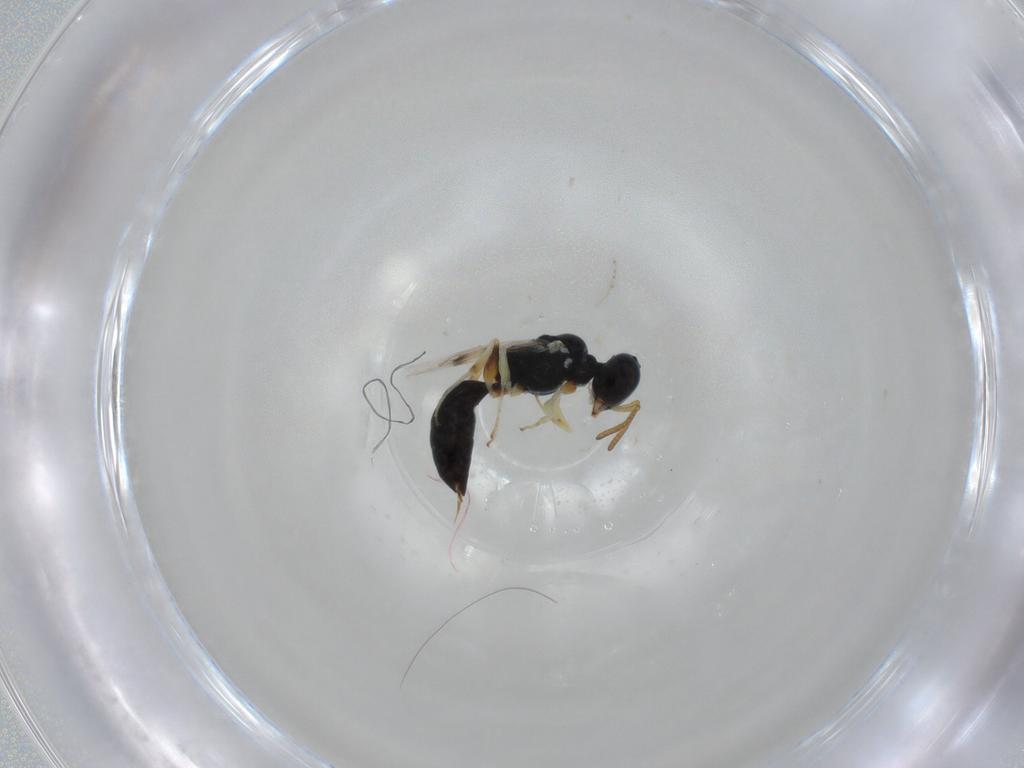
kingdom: Animalia
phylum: Arthropoda
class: Insecta
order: Hymenoptera
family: Pemphredonidae
